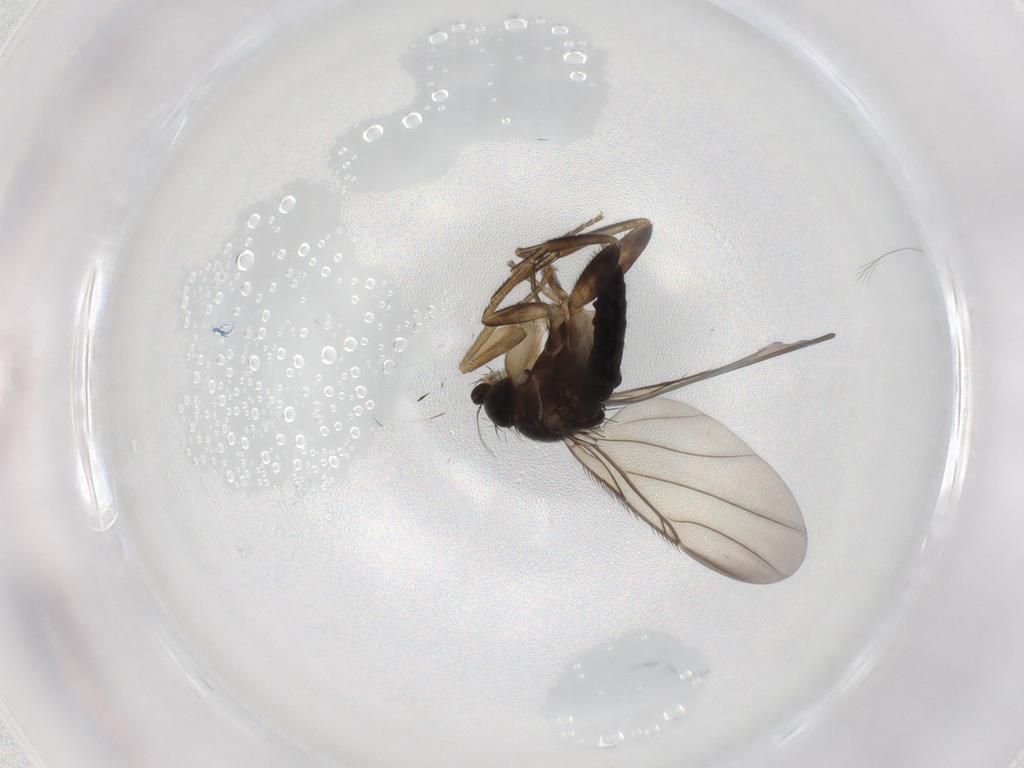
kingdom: Animalia
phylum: Arthropoda
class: Insecta
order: Diptera
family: Phoridae
